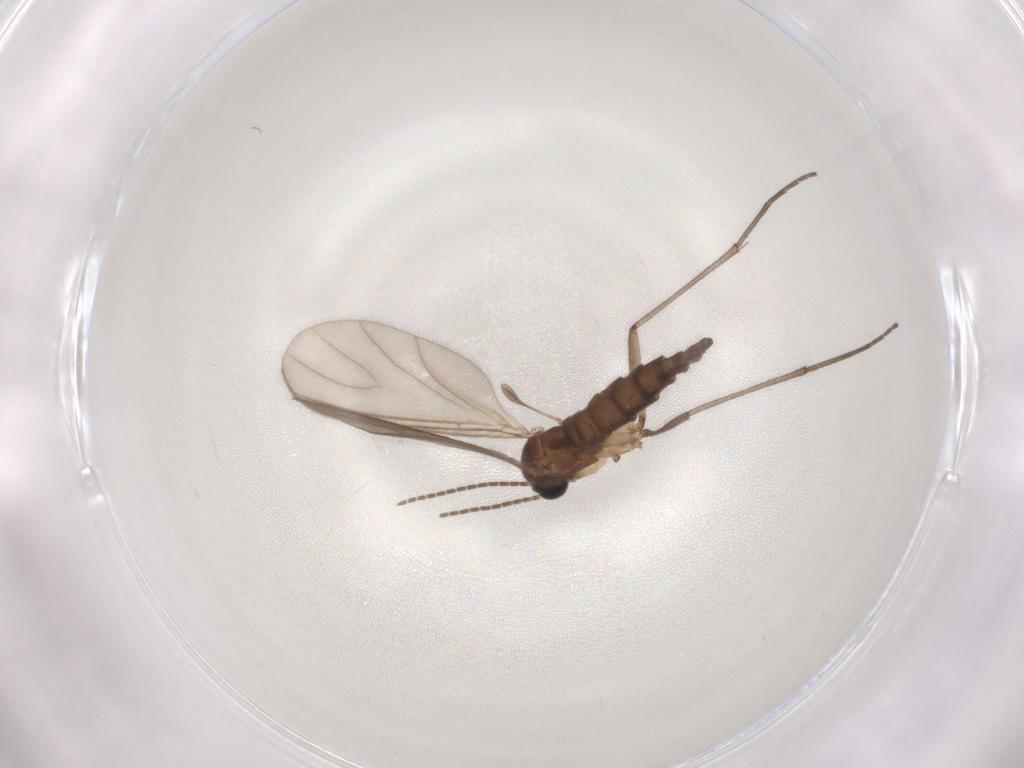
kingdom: Animalia
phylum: Arthropoda
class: Insecta
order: Diptera
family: Sciaridae
